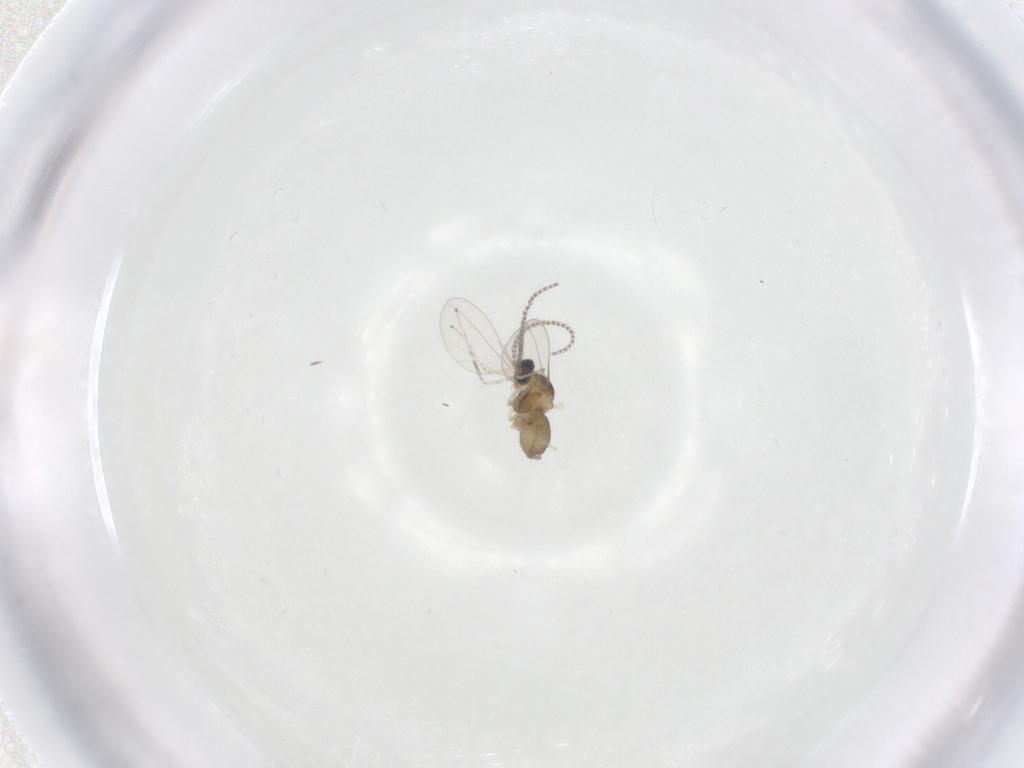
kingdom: Animalia
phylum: Arthropoda
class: Insecta
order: Diptera
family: Cecidomyiidae
